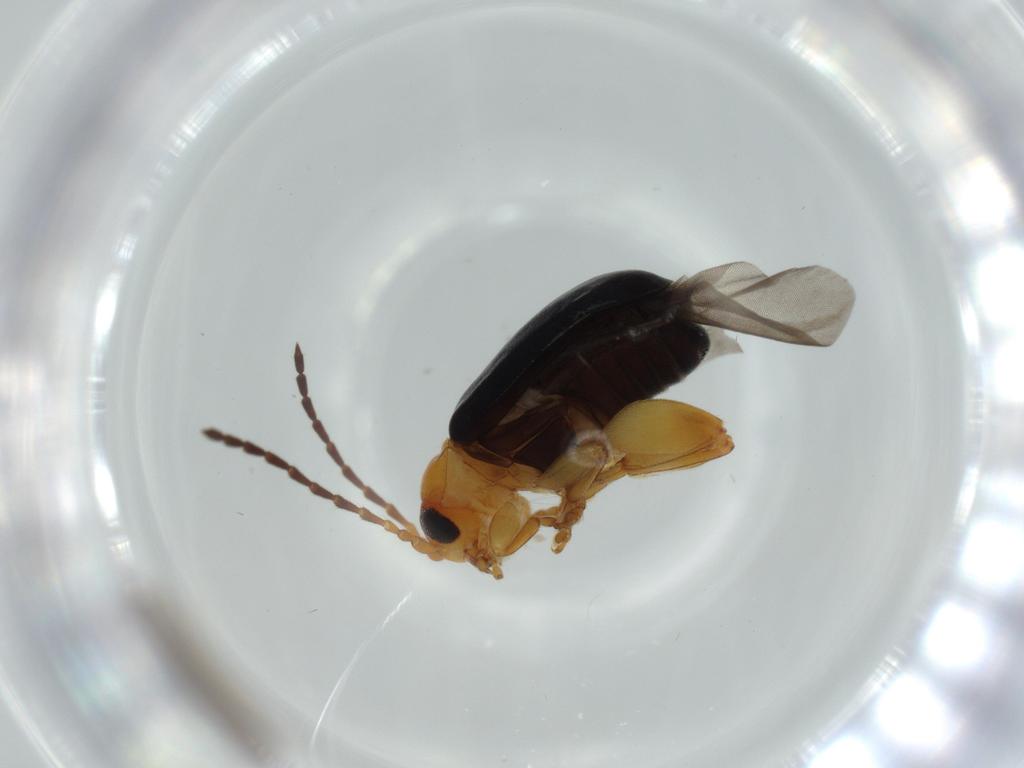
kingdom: Animalia
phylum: Arthropoda
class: Insecta
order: Coleoptera
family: Chrysomelidae
